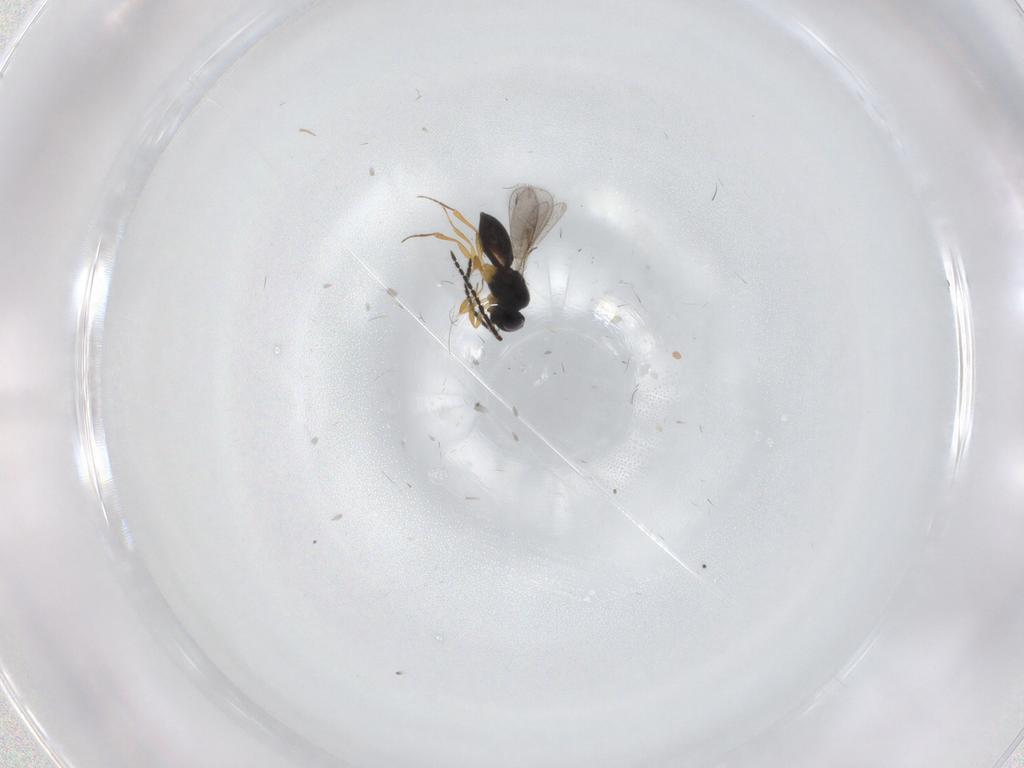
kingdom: Animalia
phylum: Arthropoda
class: Insecta
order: Hymenoptera
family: Scelionidae
